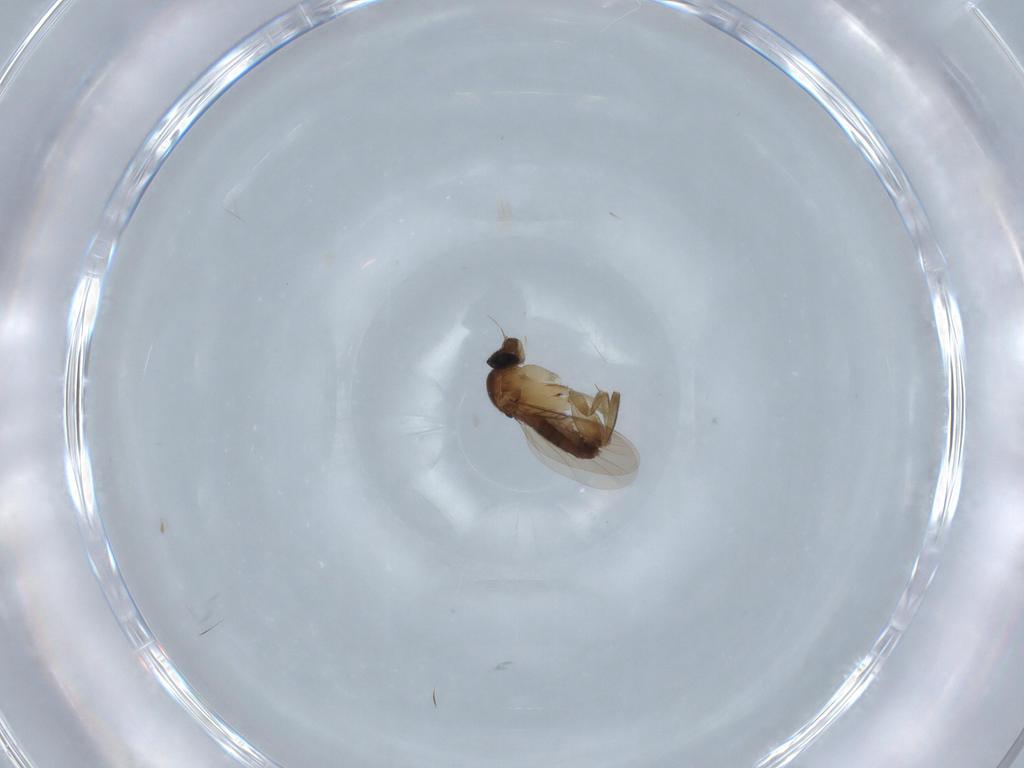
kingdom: Animalia
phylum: Arthropoda
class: Insecta
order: Diptera
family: Phoridae
